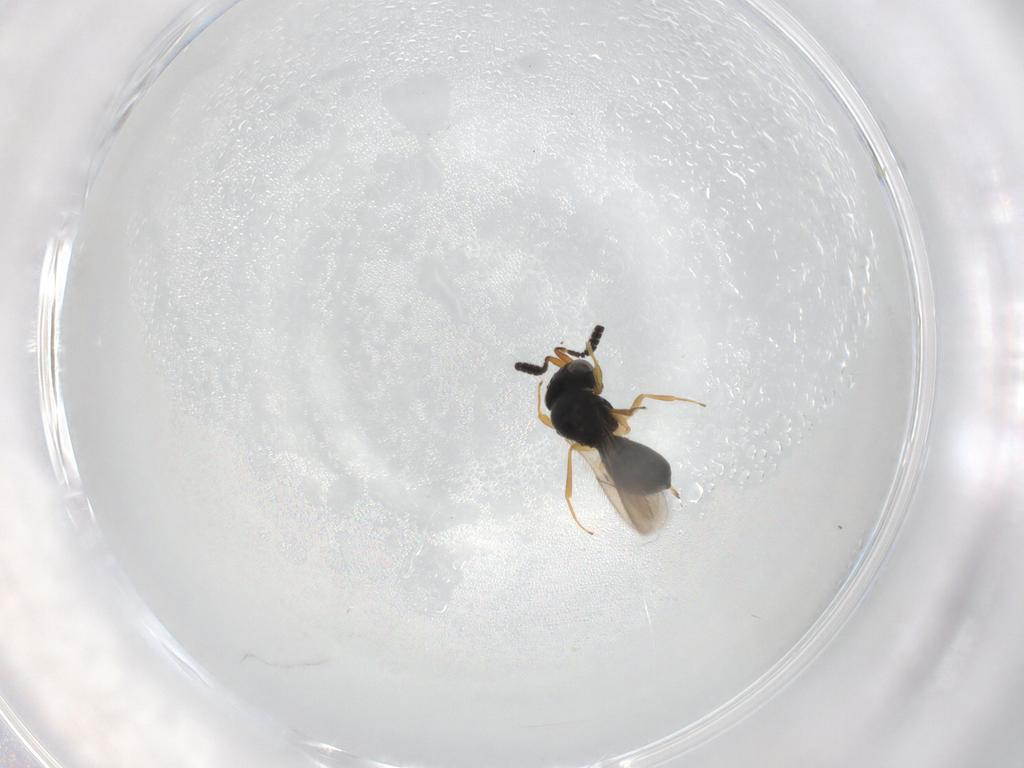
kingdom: Animalia
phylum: Arthropoda
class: Insecta
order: Hymenoptera
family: Scelionidae
